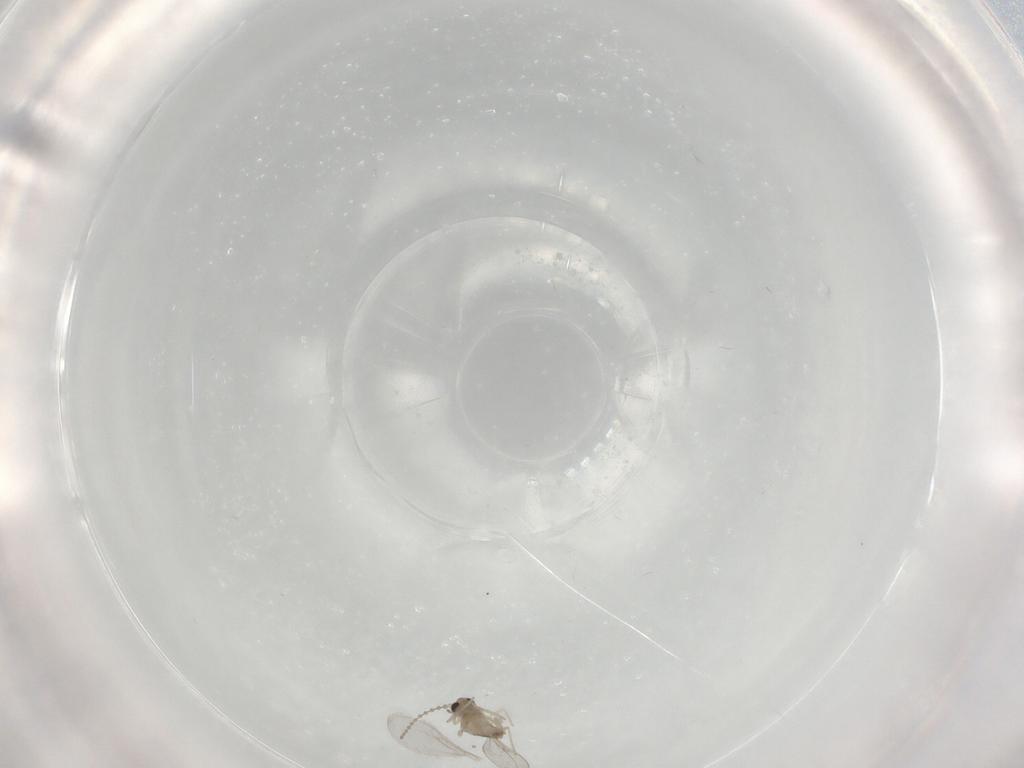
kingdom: Animalia
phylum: Arthropoda
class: Insecta
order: Diptera
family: Cecidomyiidae
